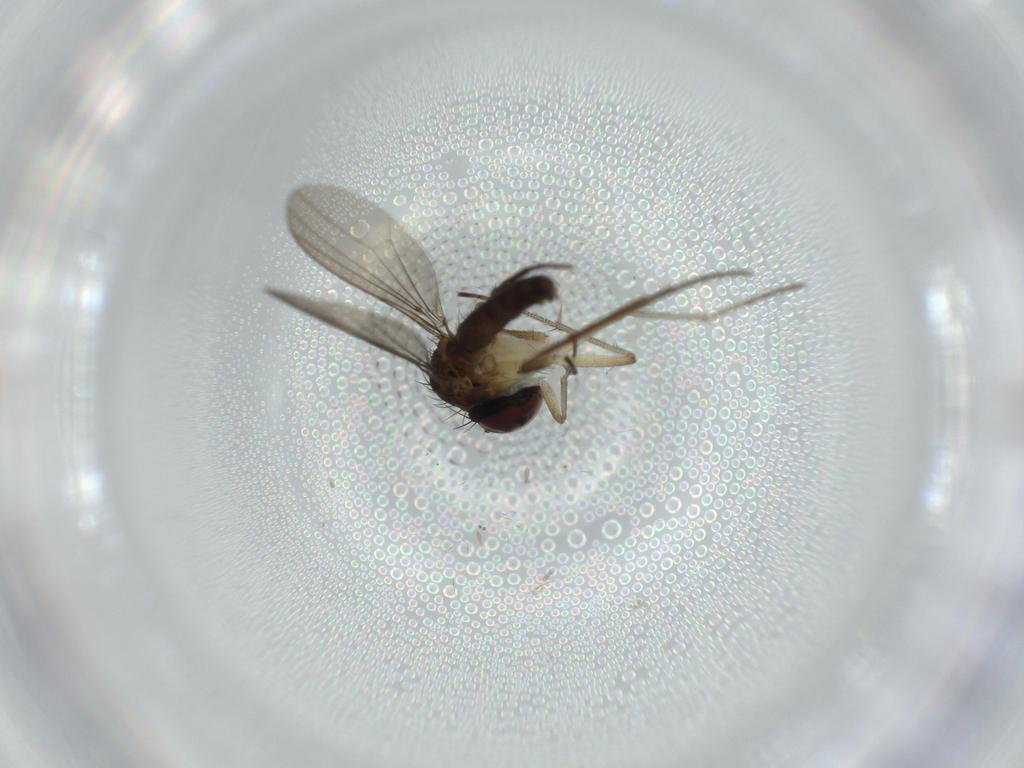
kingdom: Animalia
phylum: Arthropoda
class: Insecta
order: Diptera
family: Dolichopodidae
